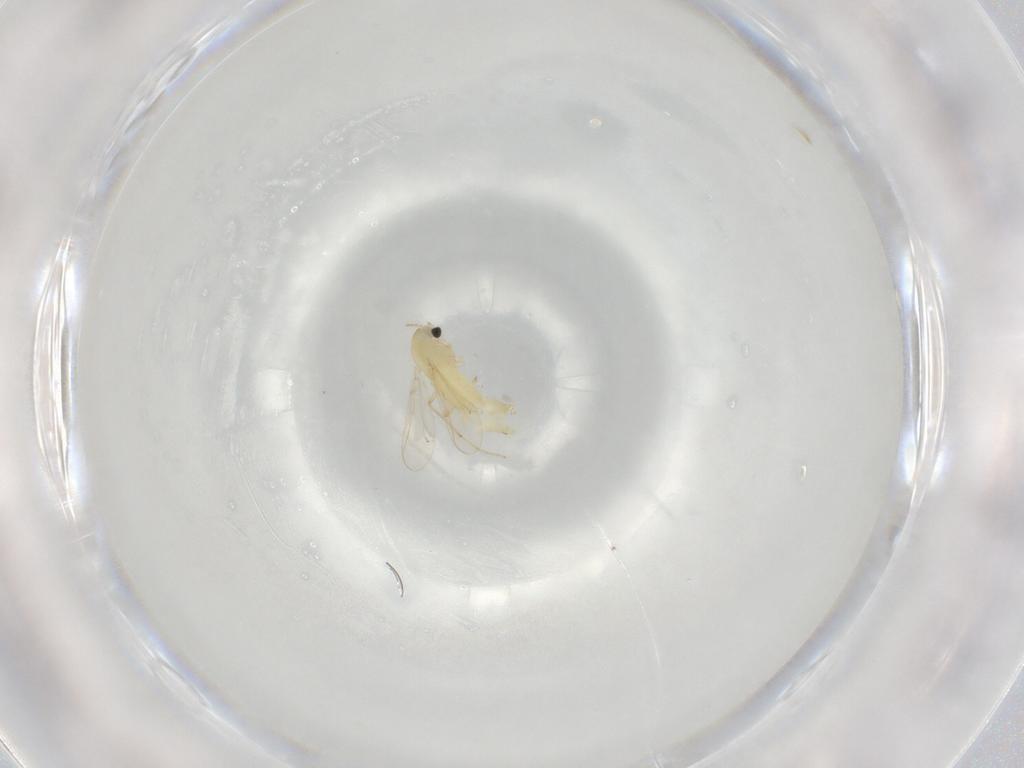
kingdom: Animalia
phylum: Arthropoda
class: Insecta
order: Diptera
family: Chironomidae
